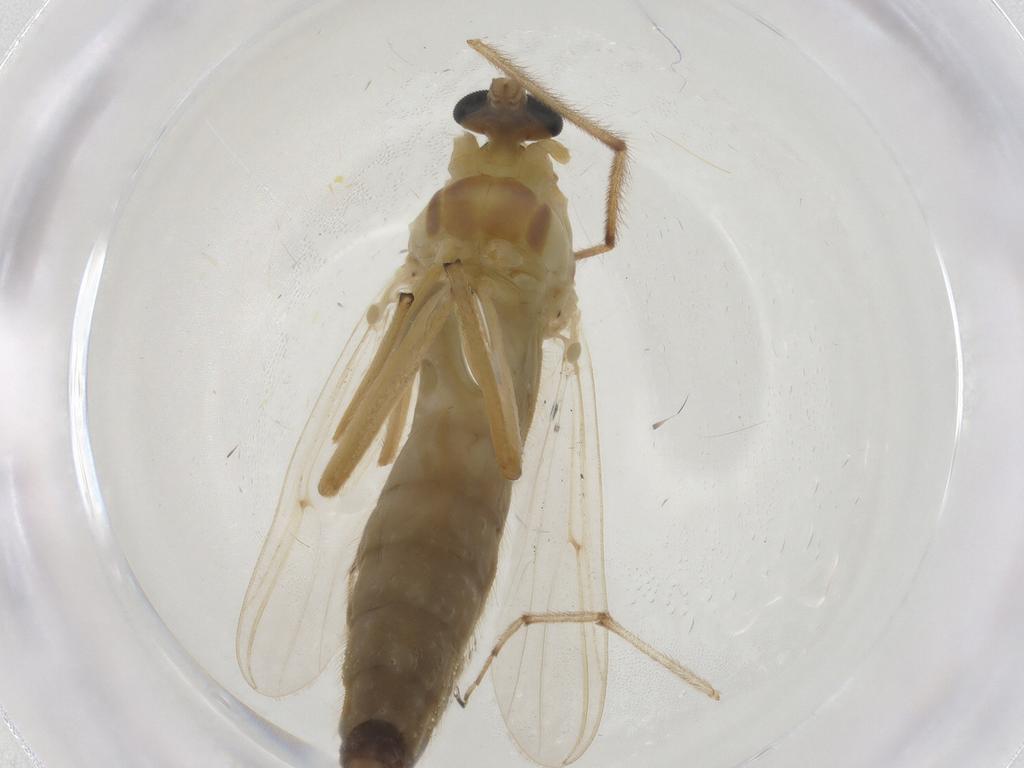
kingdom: Animalia
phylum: Arthropoda
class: Insecta
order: Diptera
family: Chironomidae
